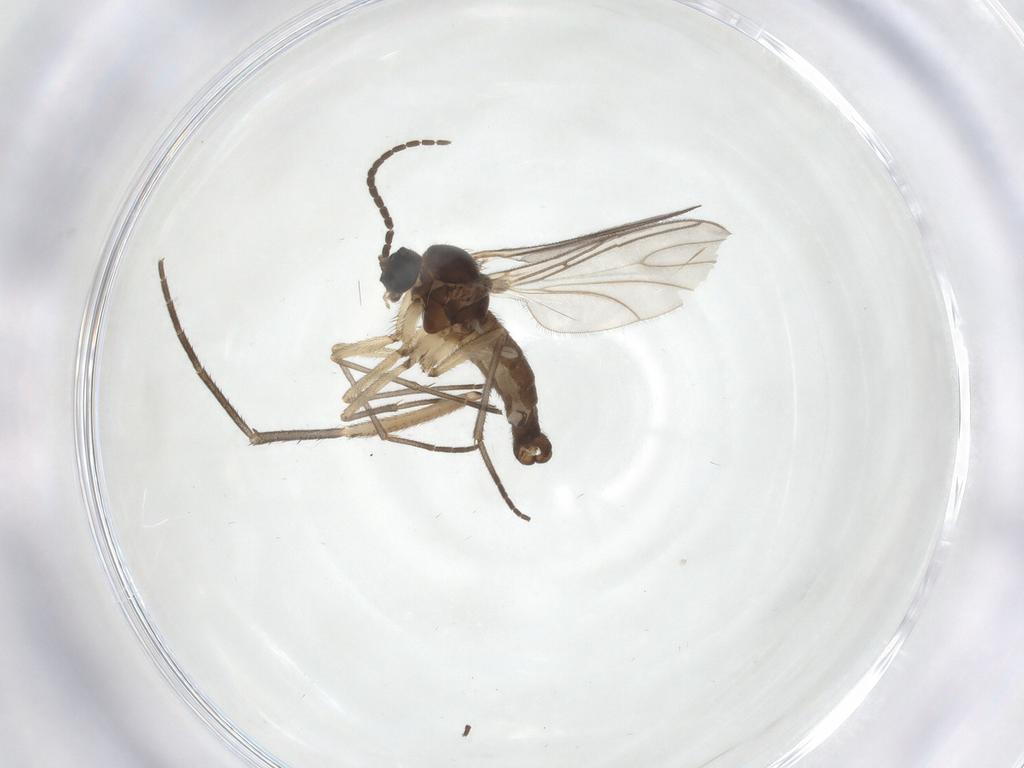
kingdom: Animalia
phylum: Arthropoda
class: Insecta
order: Diptera
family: Sciaridae
